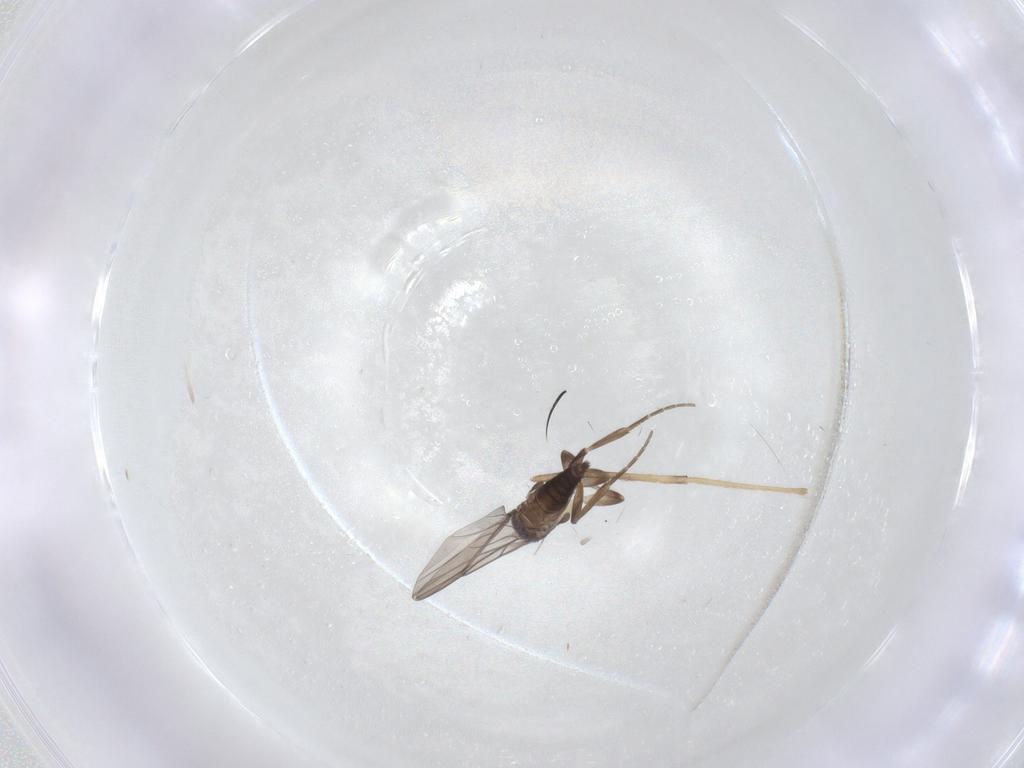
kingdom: Animalia
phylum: Arthropoda
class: Insecta
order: Diptera
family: Chironomidae
